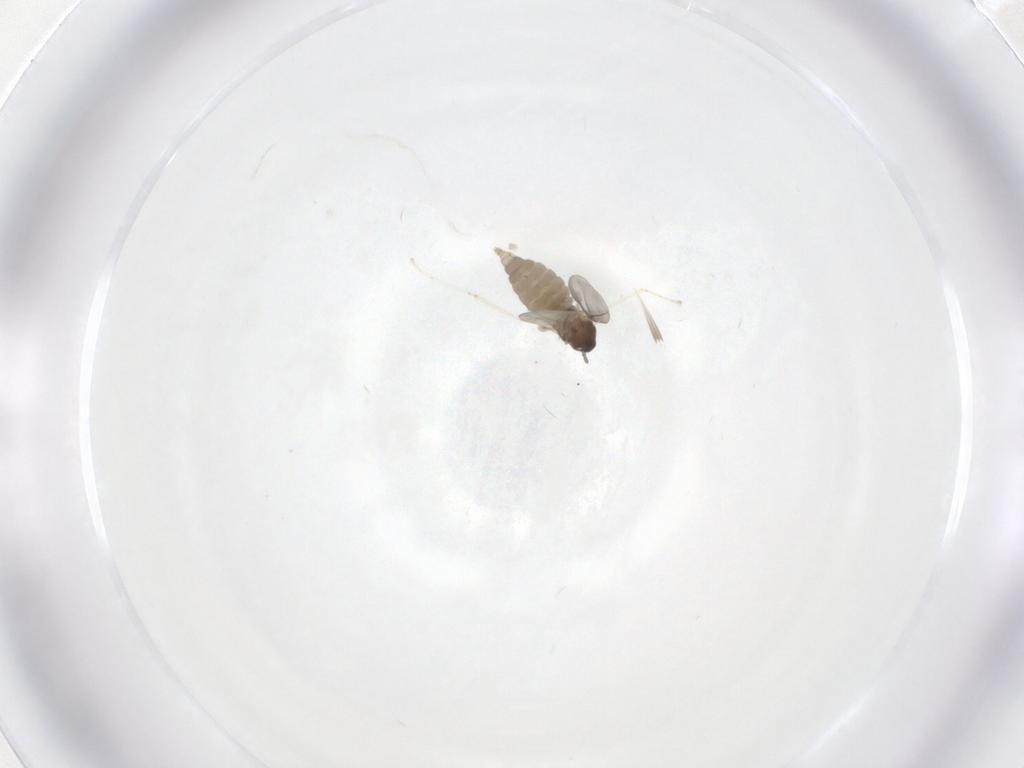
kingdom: Animalia
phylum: Arthropoda
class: Insecta
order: Diptera
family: Cecidomyiidae
